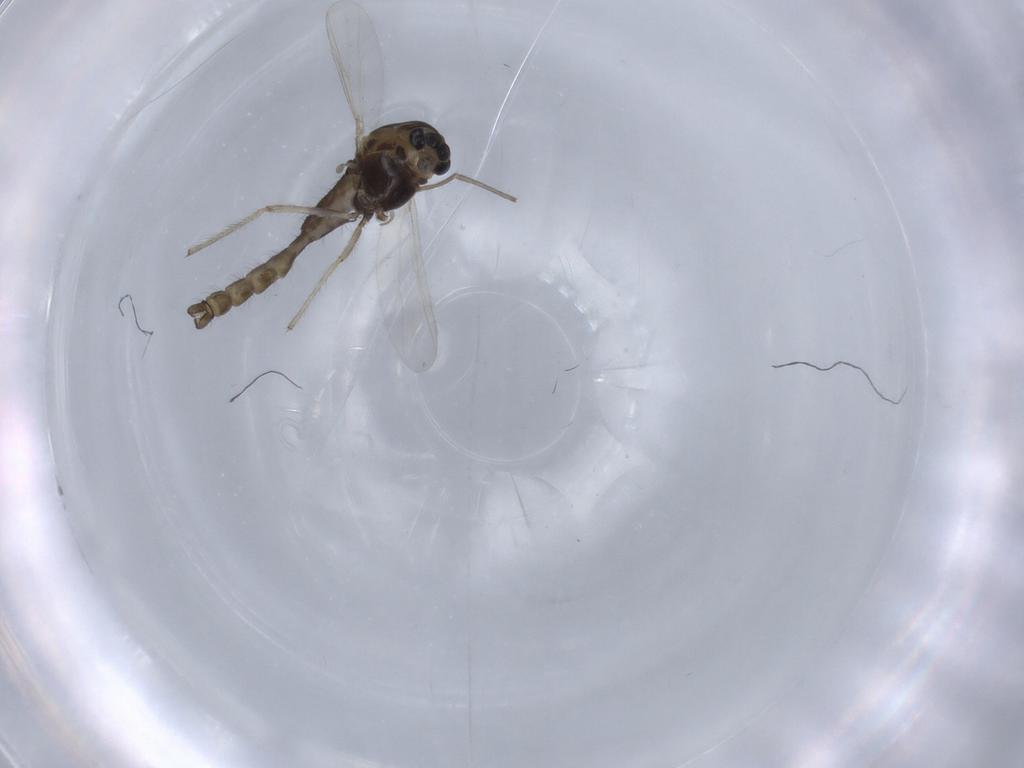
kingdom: Animalia
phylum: Arthropoda
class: Insecta
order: Diptera
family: Chironomidae
